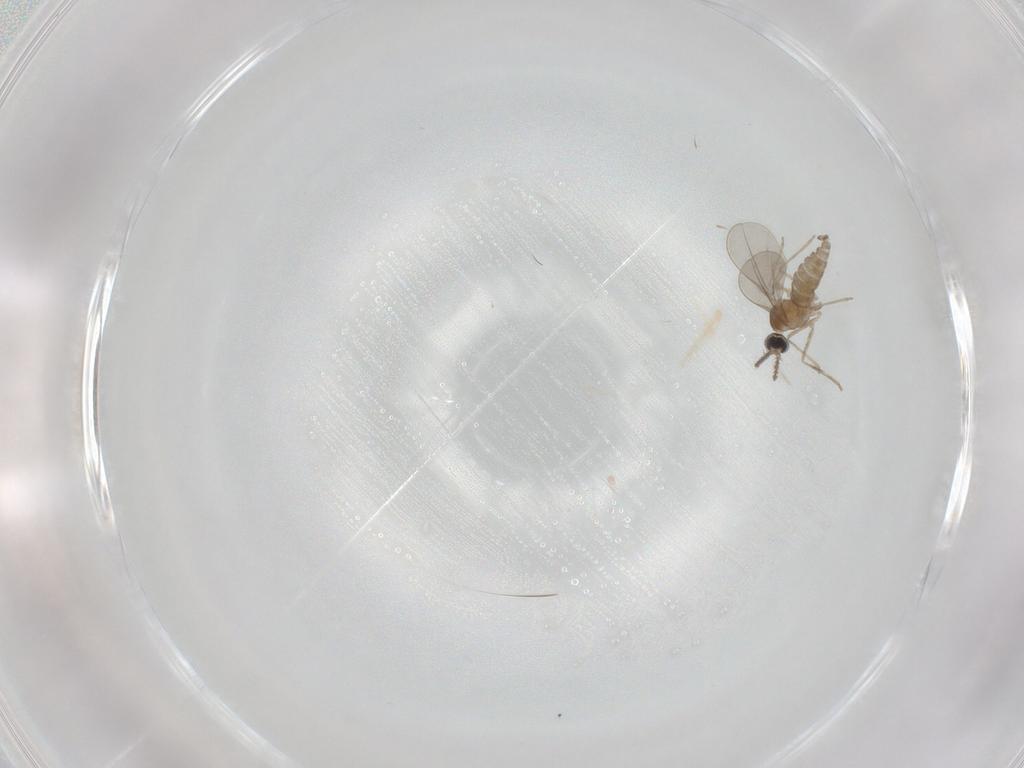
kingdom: Animalia
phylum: Arthropoda
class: Insecta
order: Diptera
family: Cecidomyiidae
